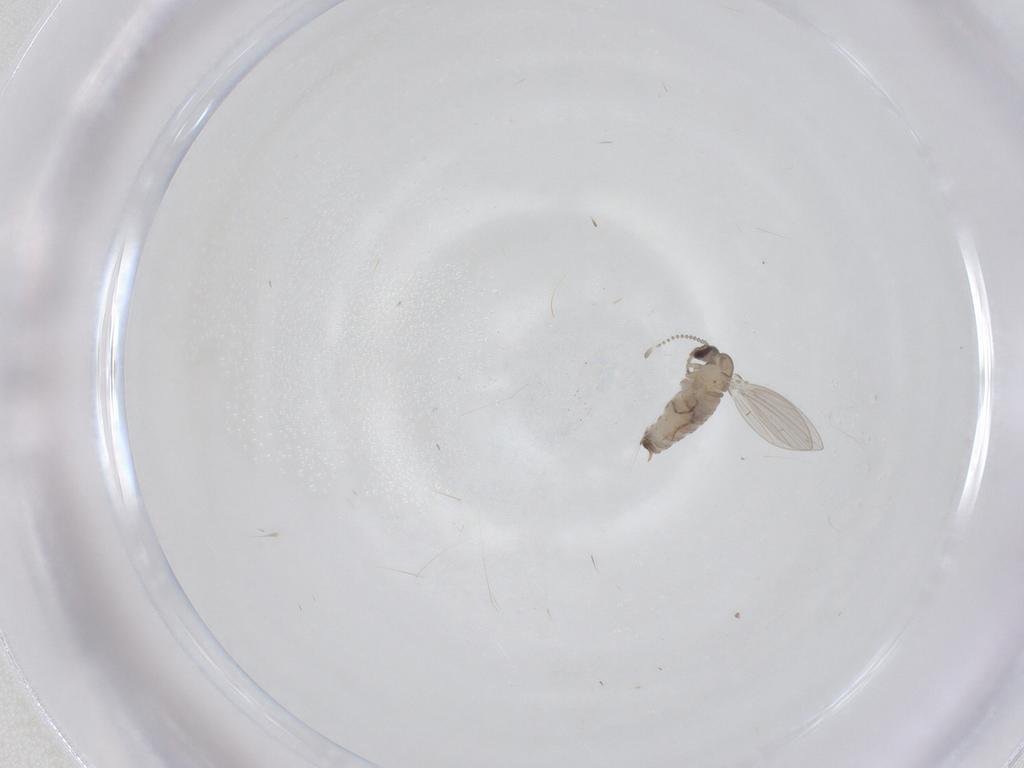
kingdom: Animalia
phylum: Arthropoda
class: Insecta
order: Diptera
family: Psychodidae
